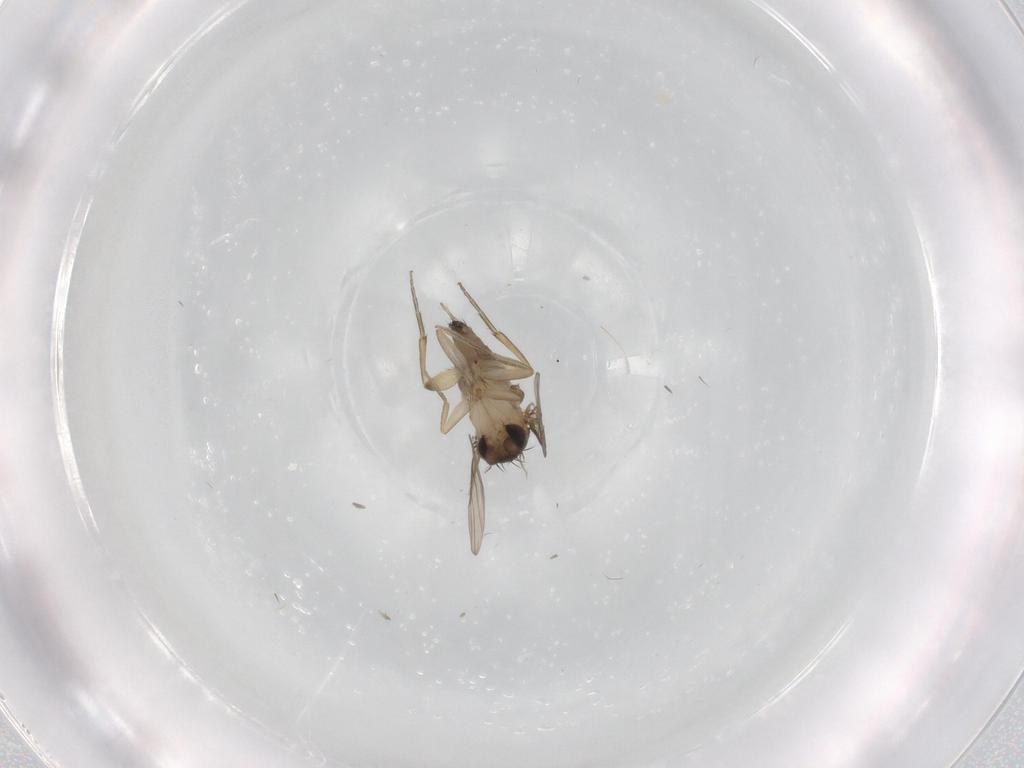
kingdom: Animalia
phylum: Arthropoda
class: Insecta
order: Diptera
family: Phoridae
